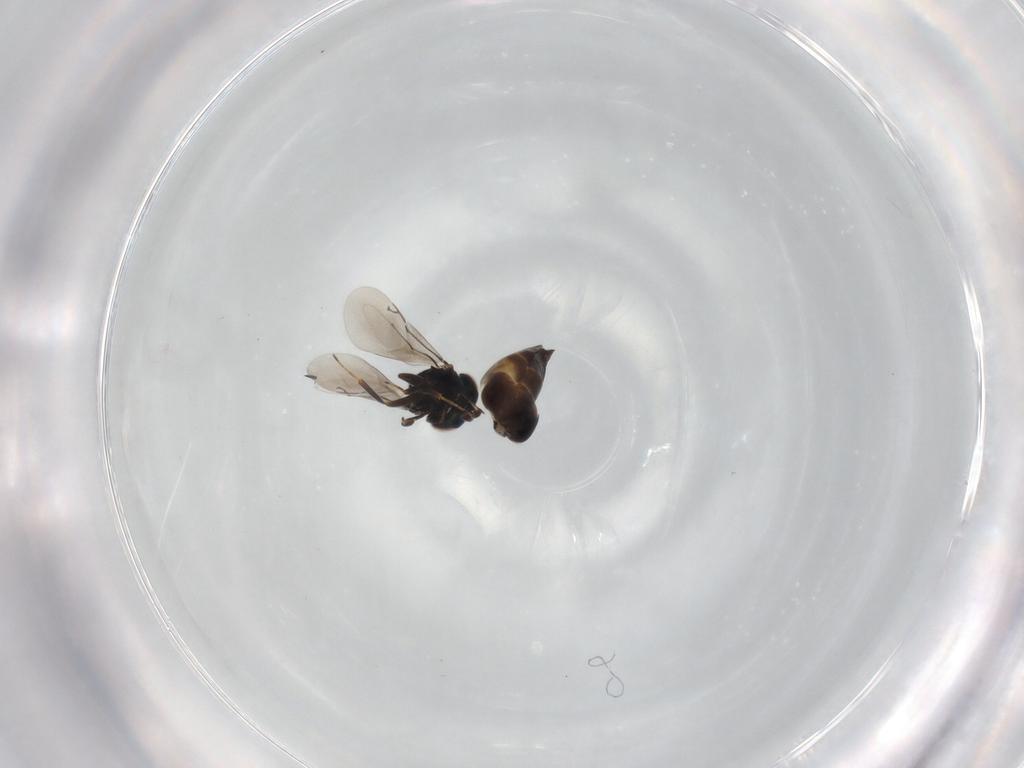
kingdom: Animalia
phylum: Arthropoda
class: Insecta
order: Hymenoptera
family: Eunotidae
